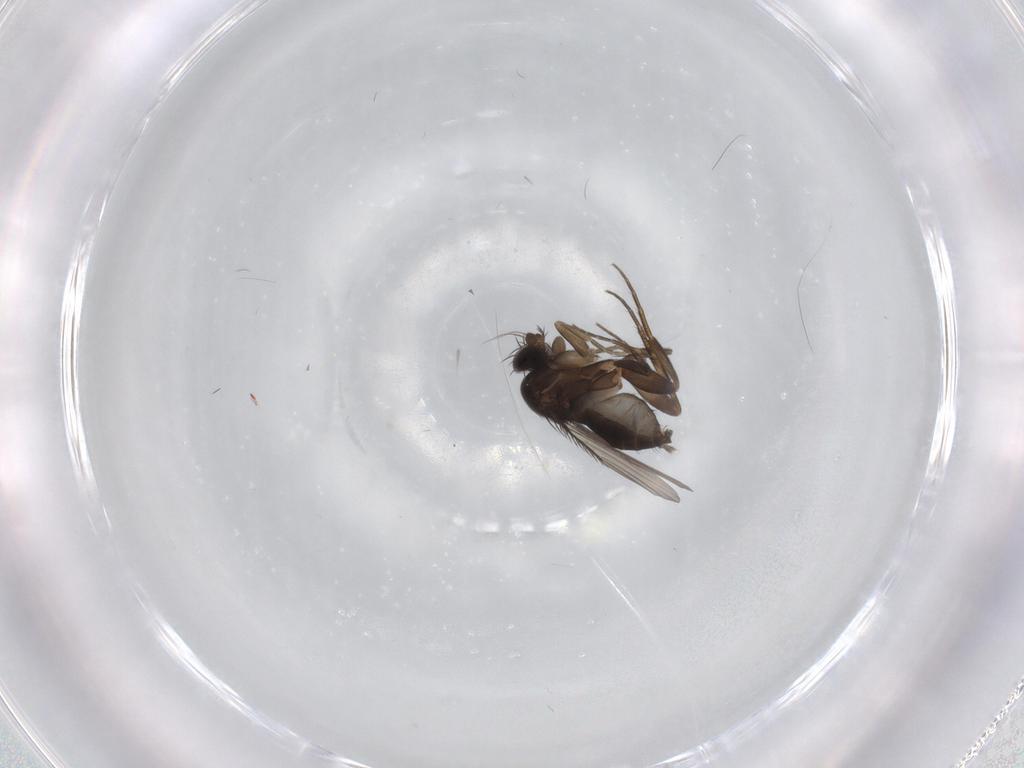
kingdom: Animalia
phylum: Arthropoda
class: Insecta
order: Diptera
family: Phoridae
